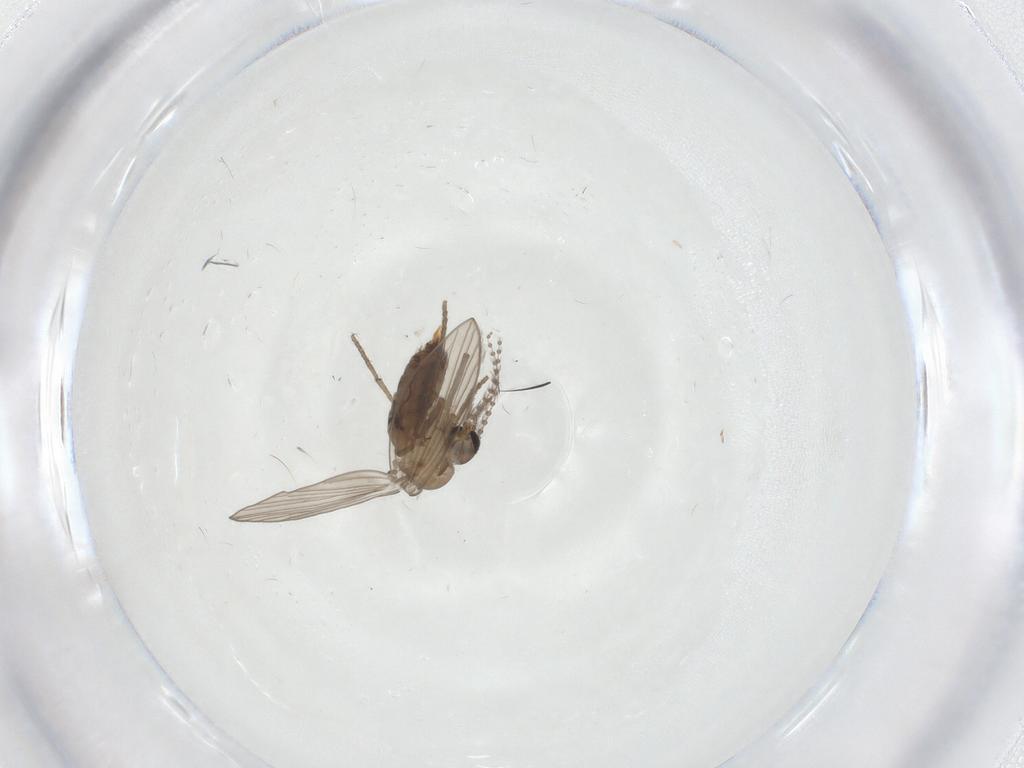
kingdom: Animalia
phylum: Arthropoda
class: Insecta
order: Diptera
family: Psychodidae
